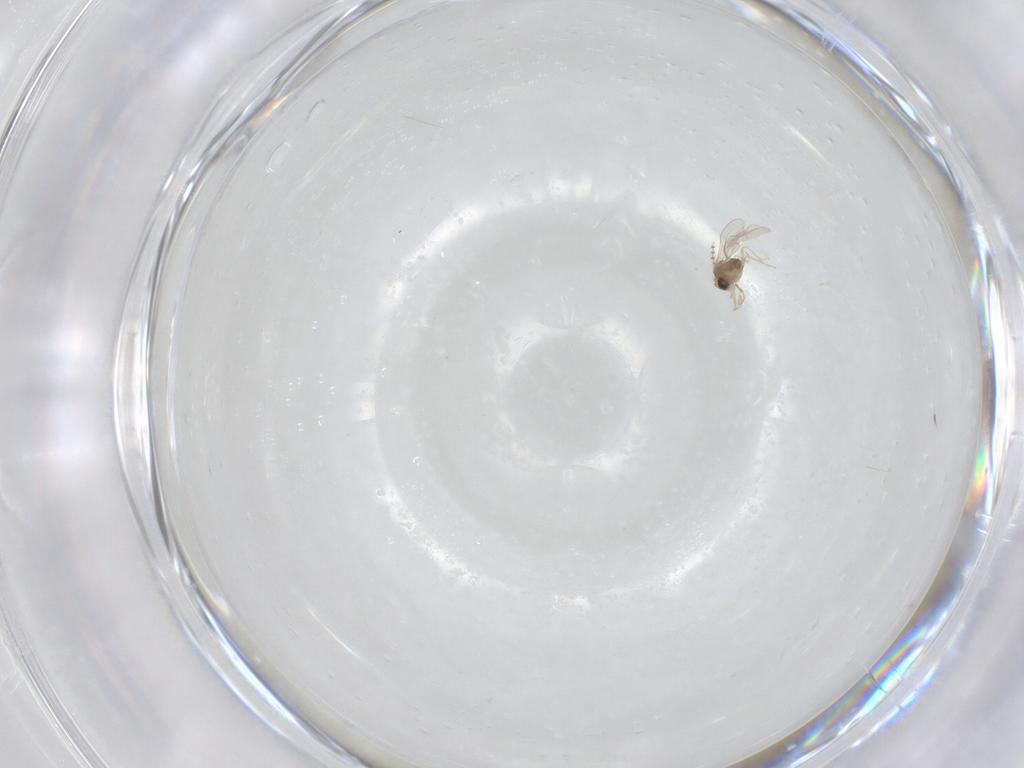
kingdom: Animalia
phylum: Arthropoda
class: Insecta
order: Diptera
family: Cecidomyiidae
